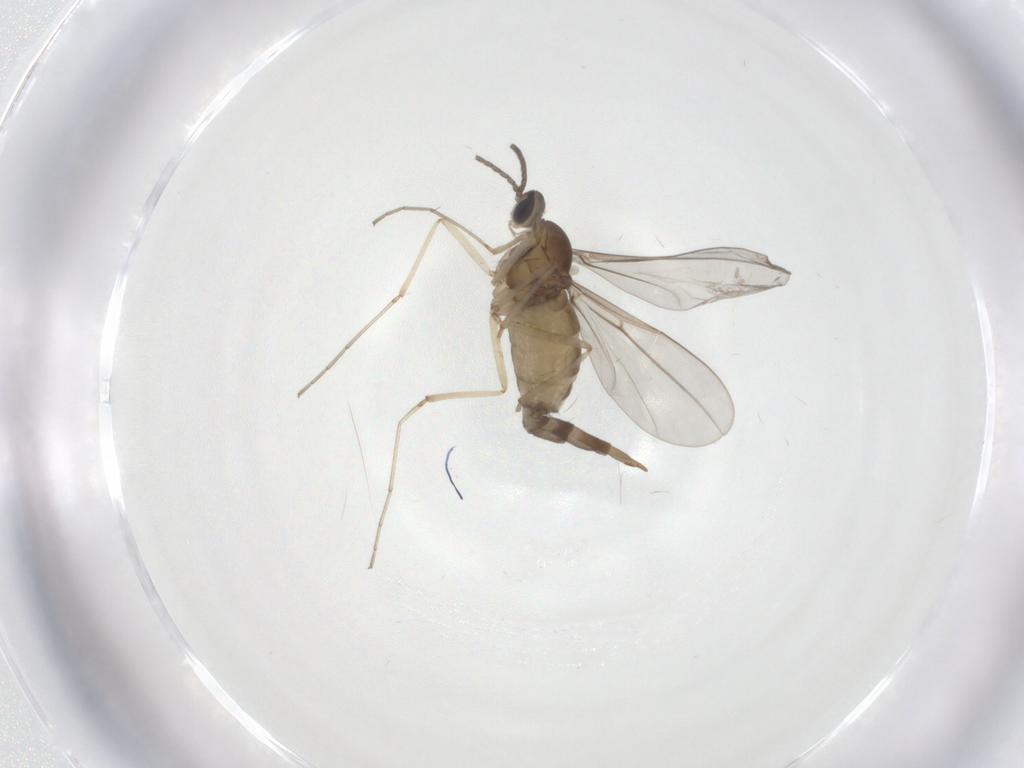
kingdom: Animalia
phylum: Arthropoda
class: Insecta
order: Diptera
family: Cecidomyiidae
